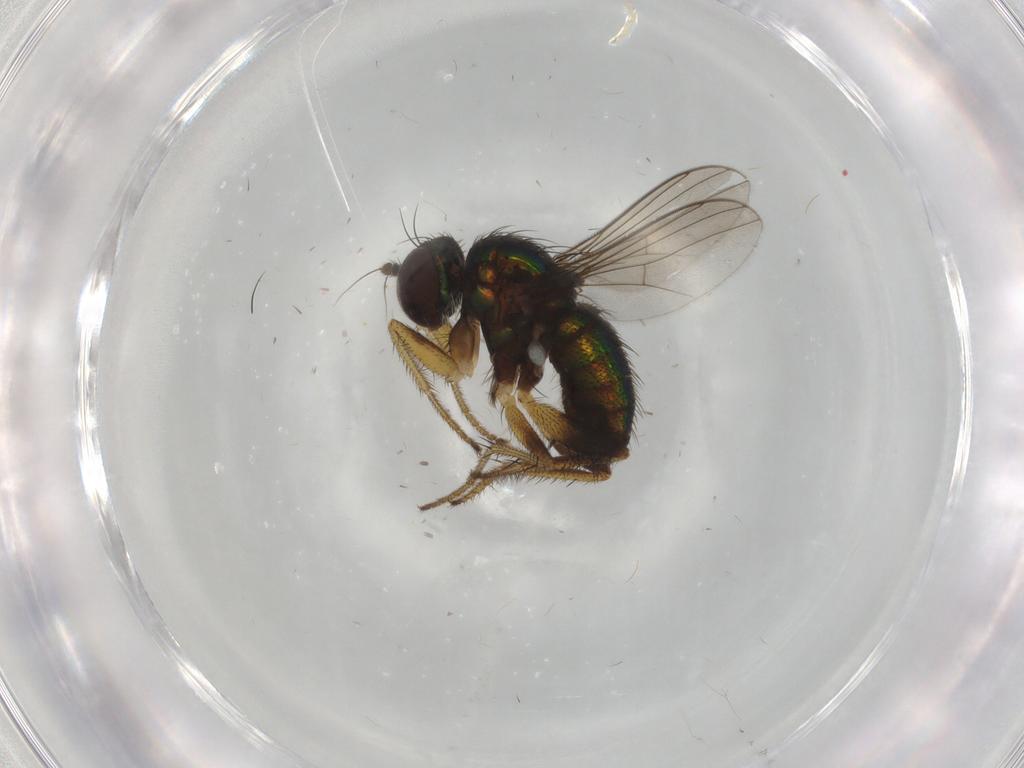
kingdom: Animalia
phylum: Arthropoda
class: Insecta
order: Diptera
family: Dolichopodidae
